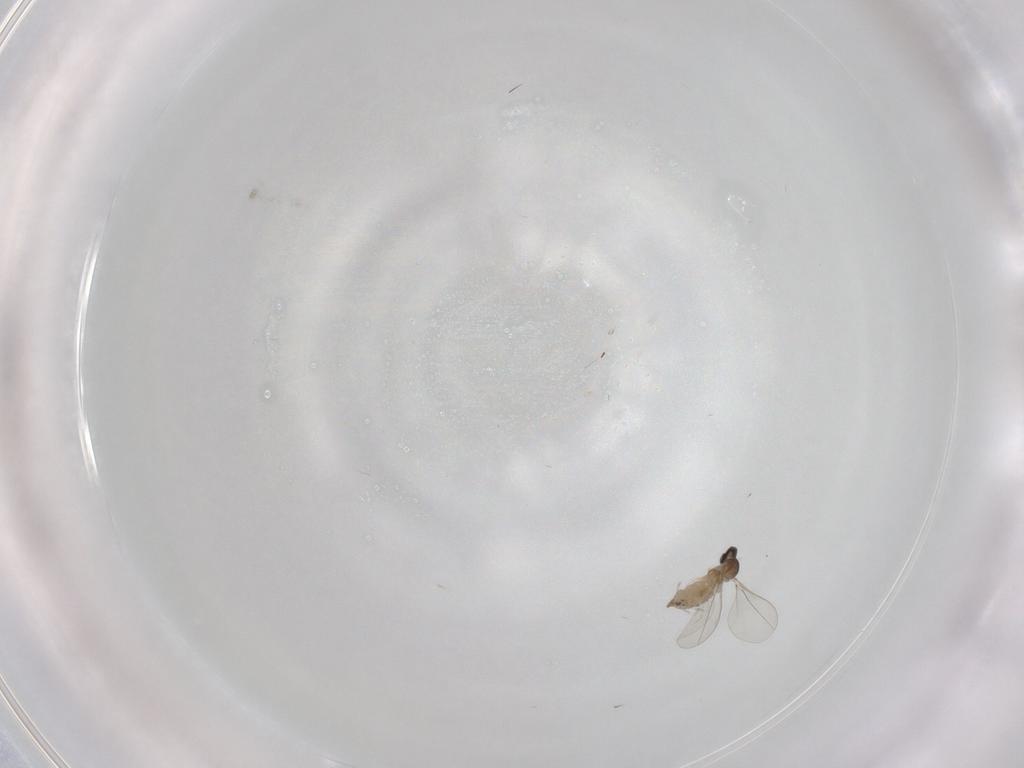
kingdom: Animalia
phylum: Arthropoda
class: Insecta
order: Diptera
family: Cecidomyiidae
